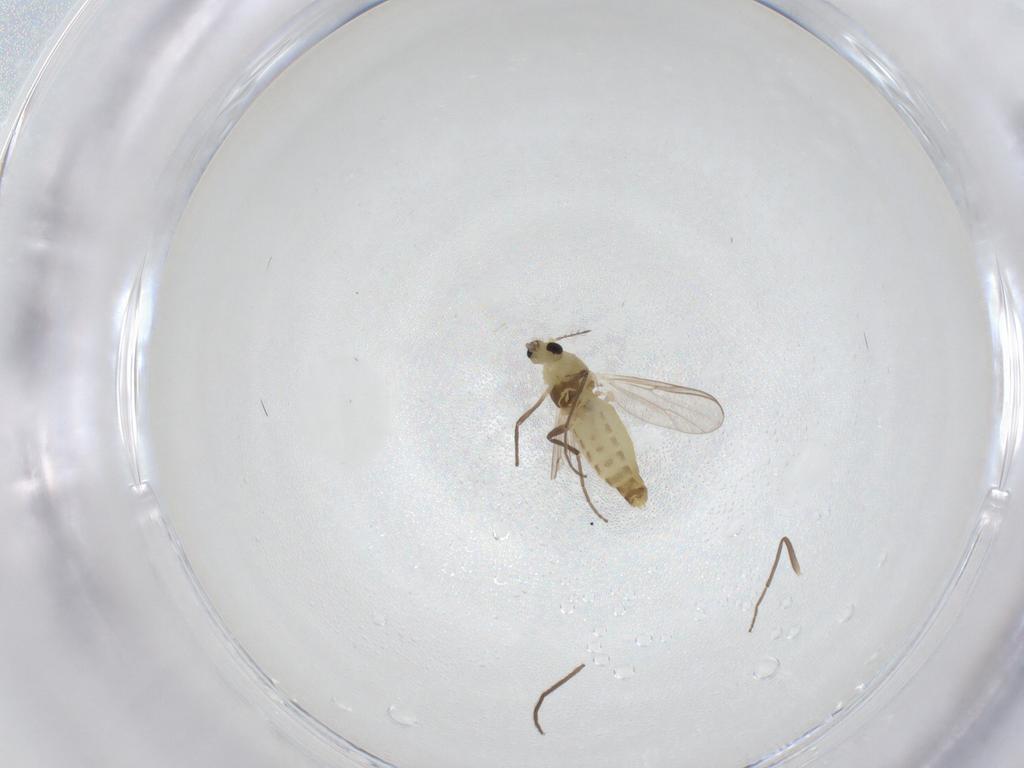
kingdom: Animalia
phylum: Arthropoda
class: Insecta
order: Diptera
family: Chironomidae
